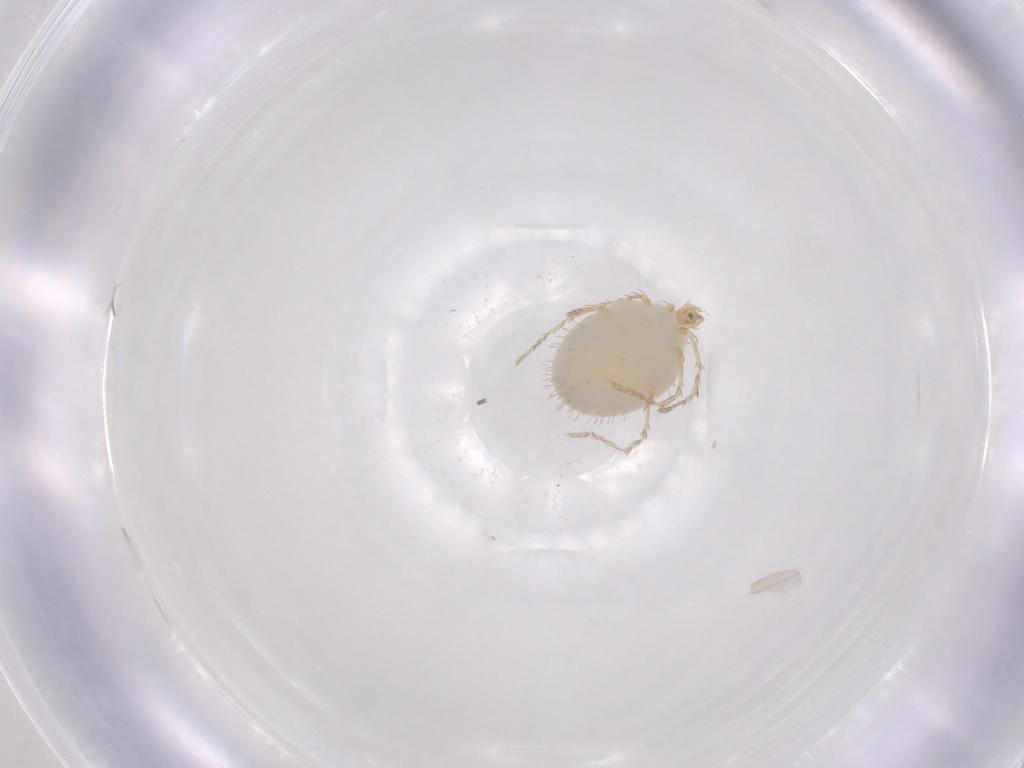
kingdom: Animalia
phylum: Arthropoda
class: Arachnida
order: Trombidiformes
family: Erythraeidae
